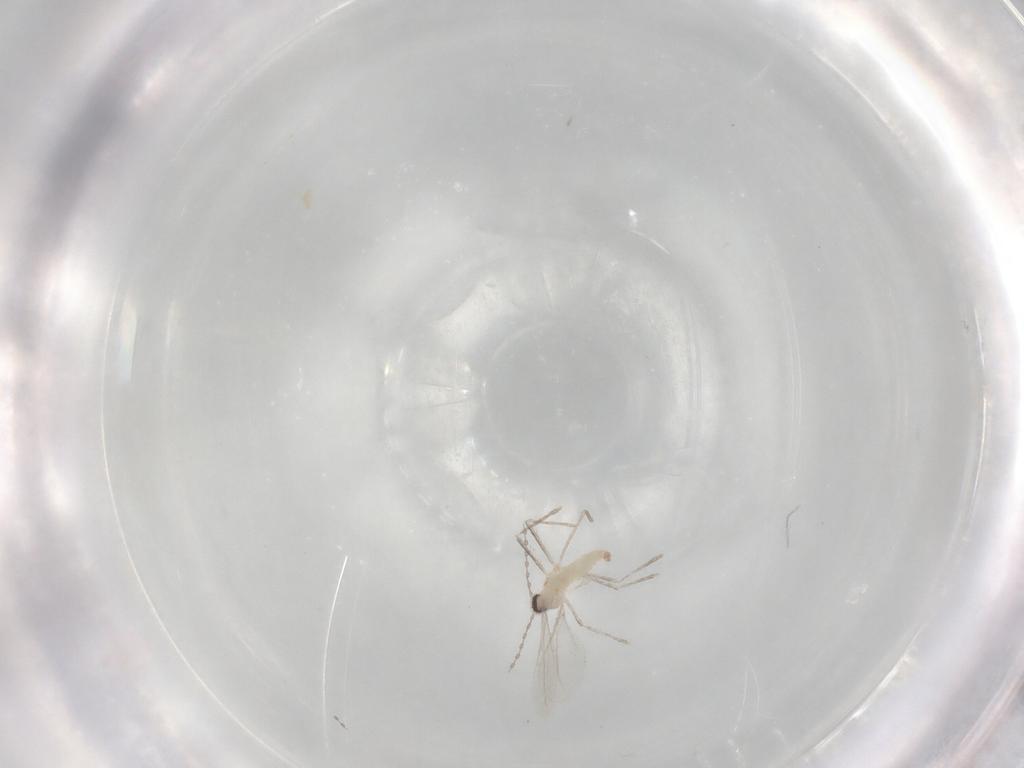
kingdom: Animalia
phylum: Arthropoda
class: Insecta
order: Diptera
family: Cecidomyiidae
